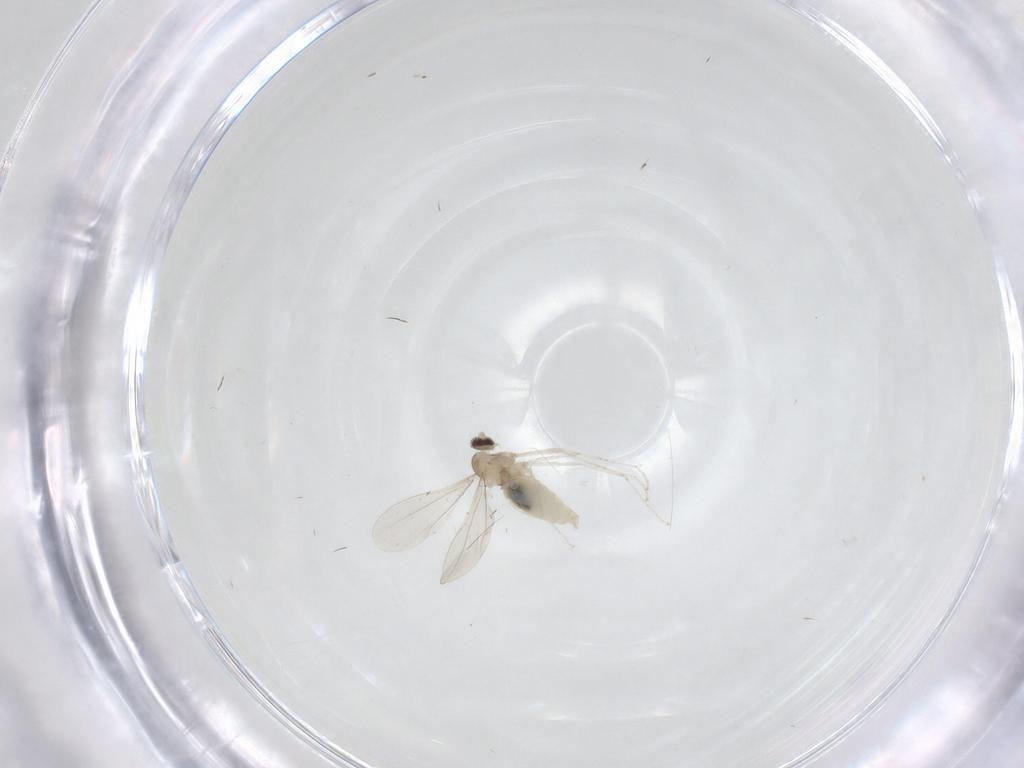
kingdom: Animalia
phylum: Arthropoda
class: Insecta
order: Diptera
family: Cecidomyiidae
